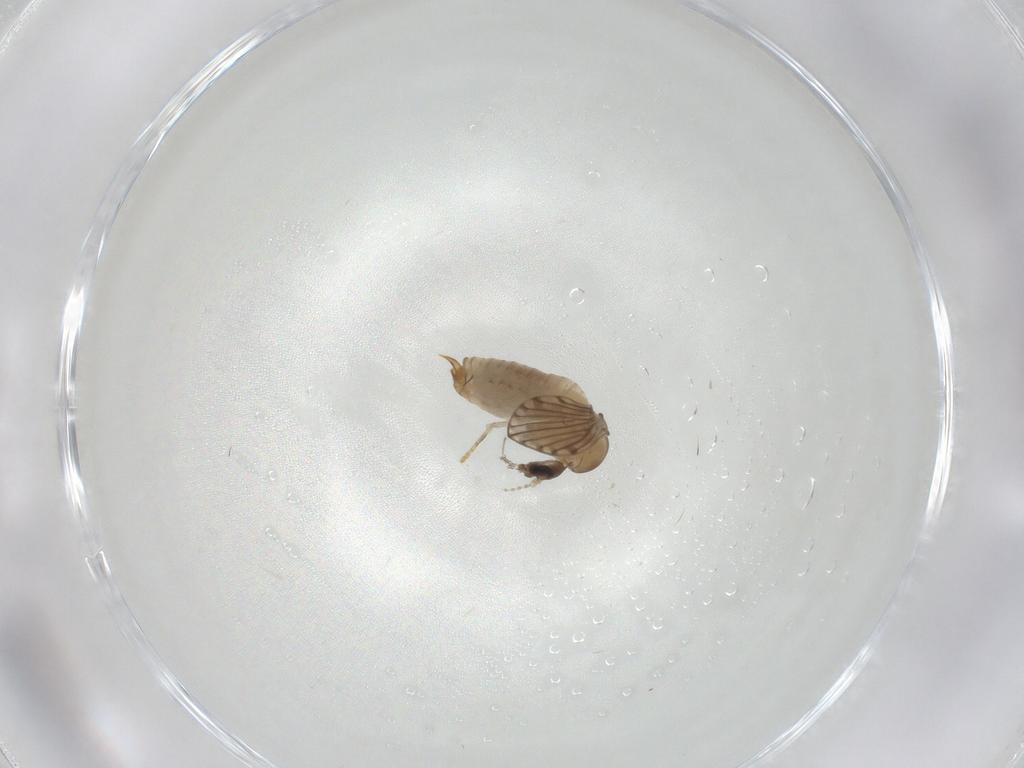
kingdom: Animalia
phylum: Arthropoda
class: Insecta
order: Diptera
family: Psychodidae
